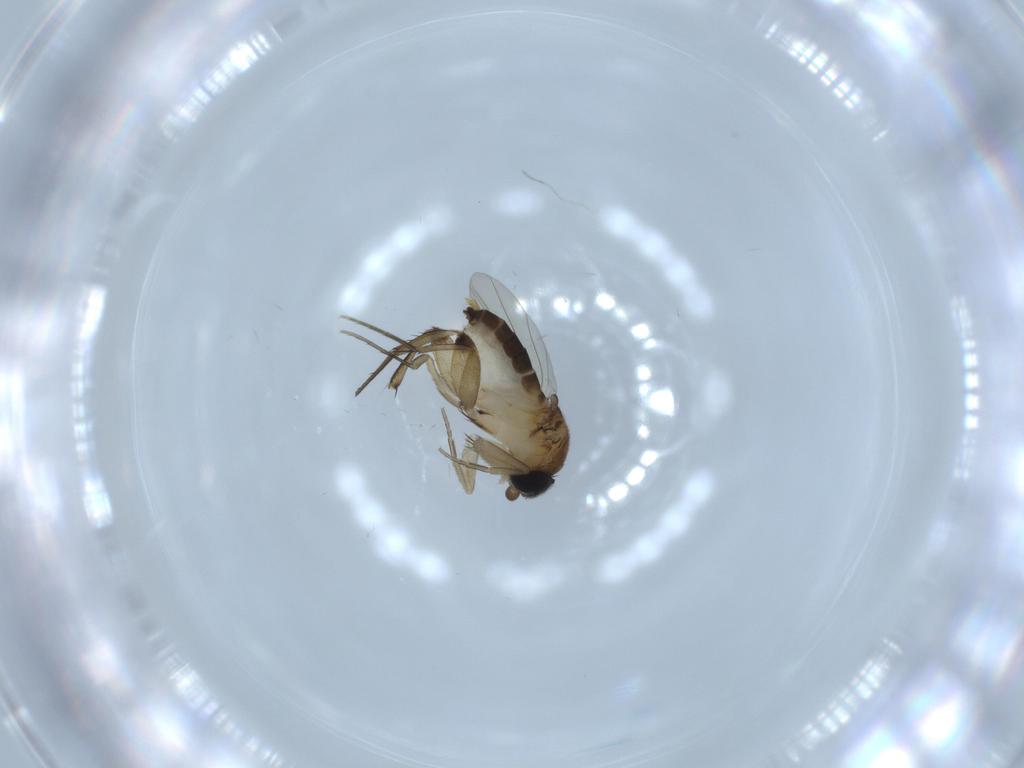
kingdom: Animalia
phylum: Arthropoda
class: Insecta
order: Diptera
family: Phoridae
